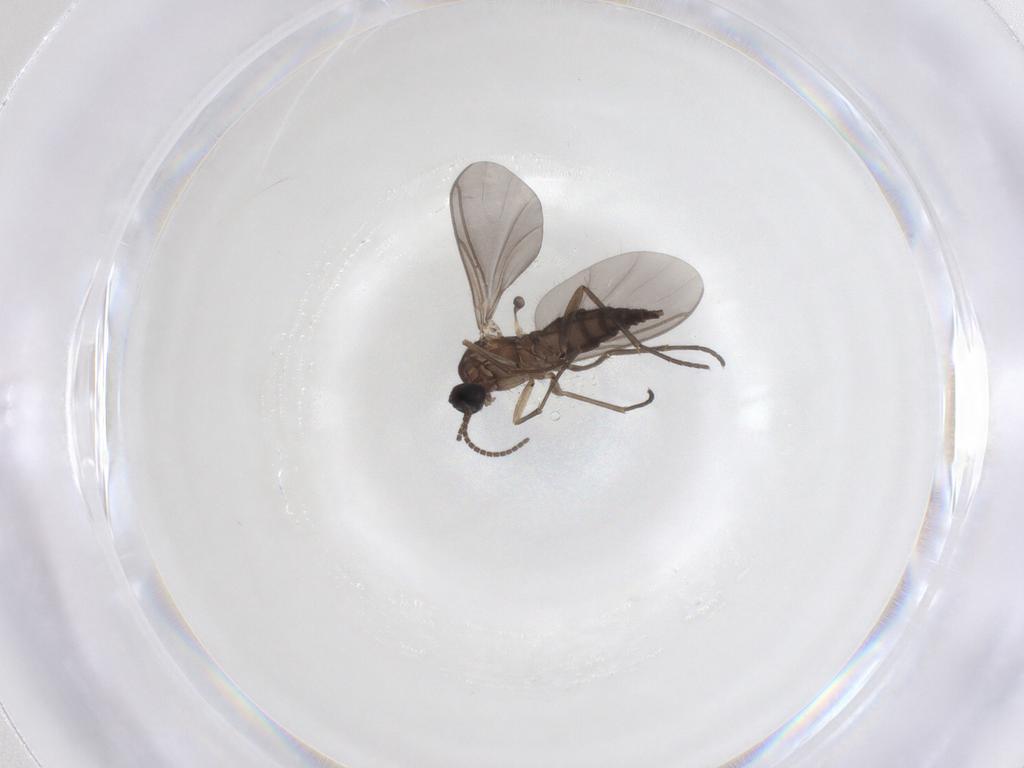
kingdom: Animalia
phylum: Arthropoda
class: Insecta
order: Diptera
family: Sciaridae
